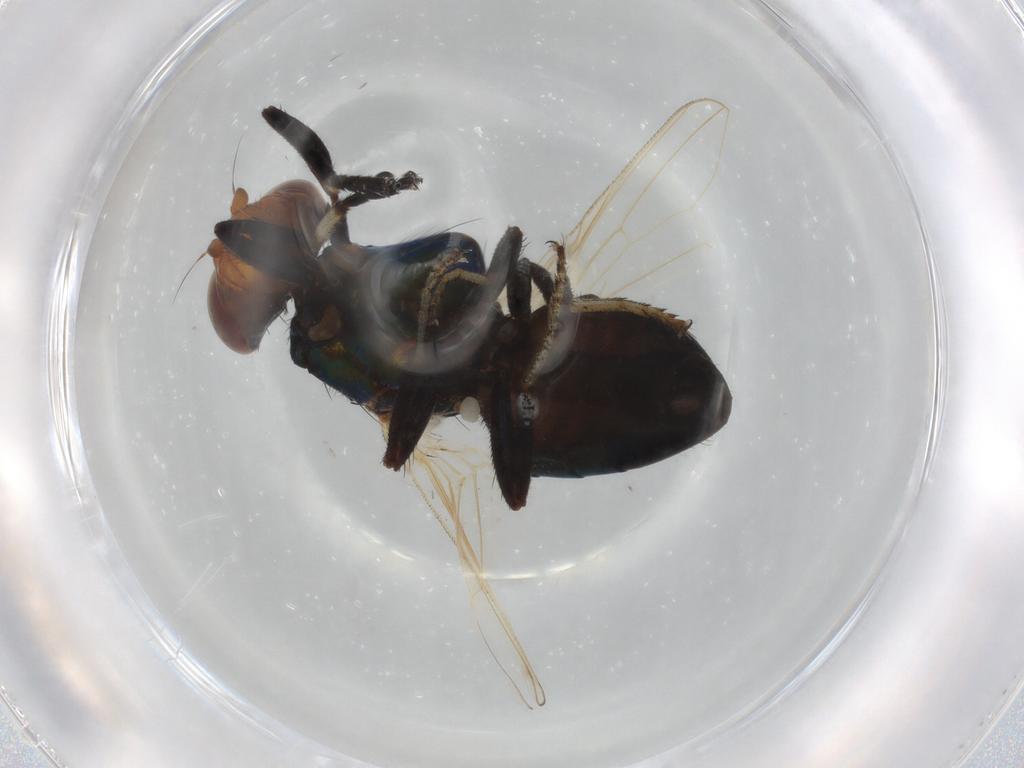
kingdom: Animalia
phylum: Arthropoda
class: Insecta
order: Diptera
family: Ulidiidae
